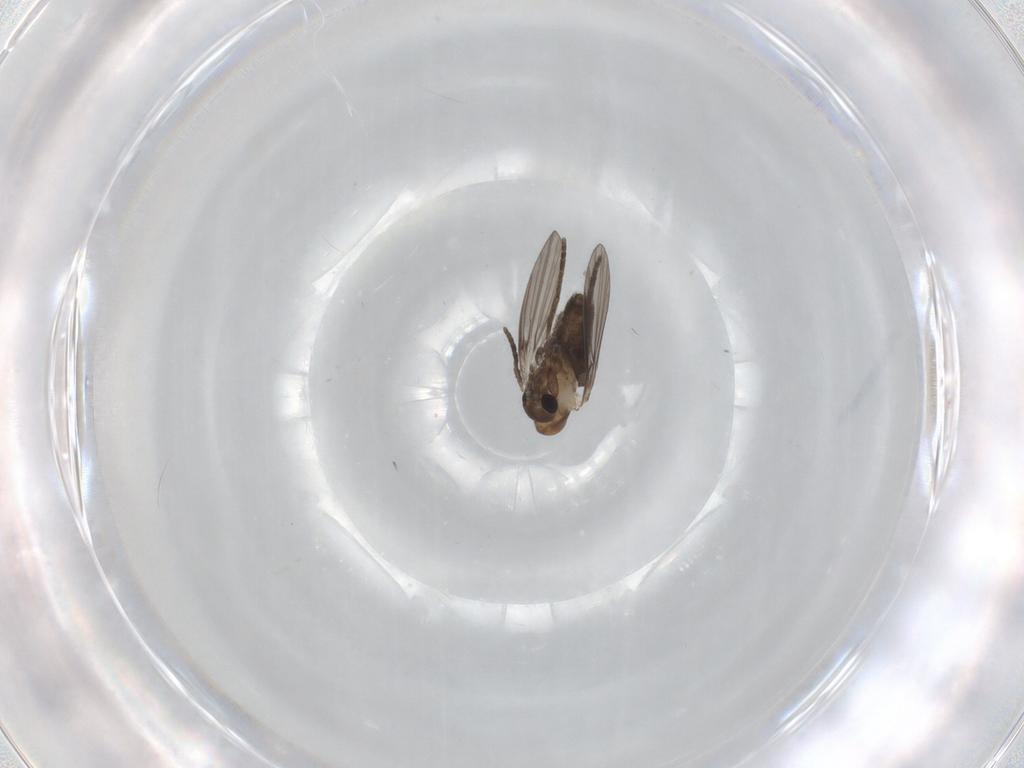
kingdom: Animalia
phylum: Arthropoda
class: Insecta
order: Diptera
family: Psychodidae
